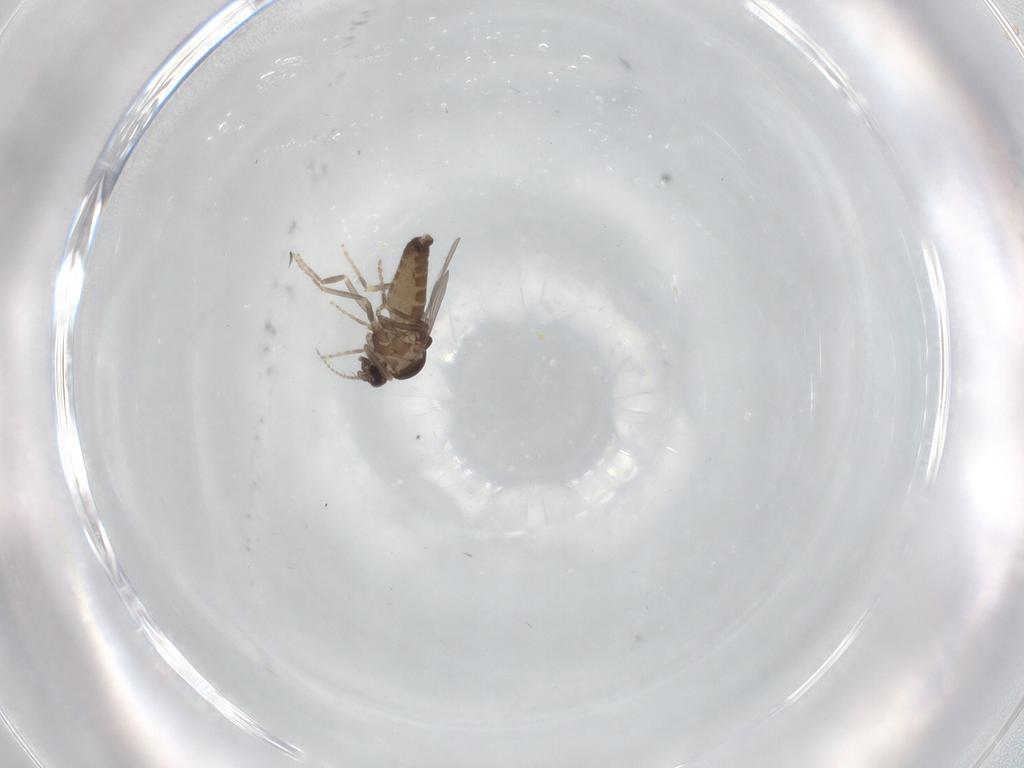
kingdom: Animalia
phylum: Arthropoda
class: Insecta
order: Diptera
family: Ceratopogonidae
